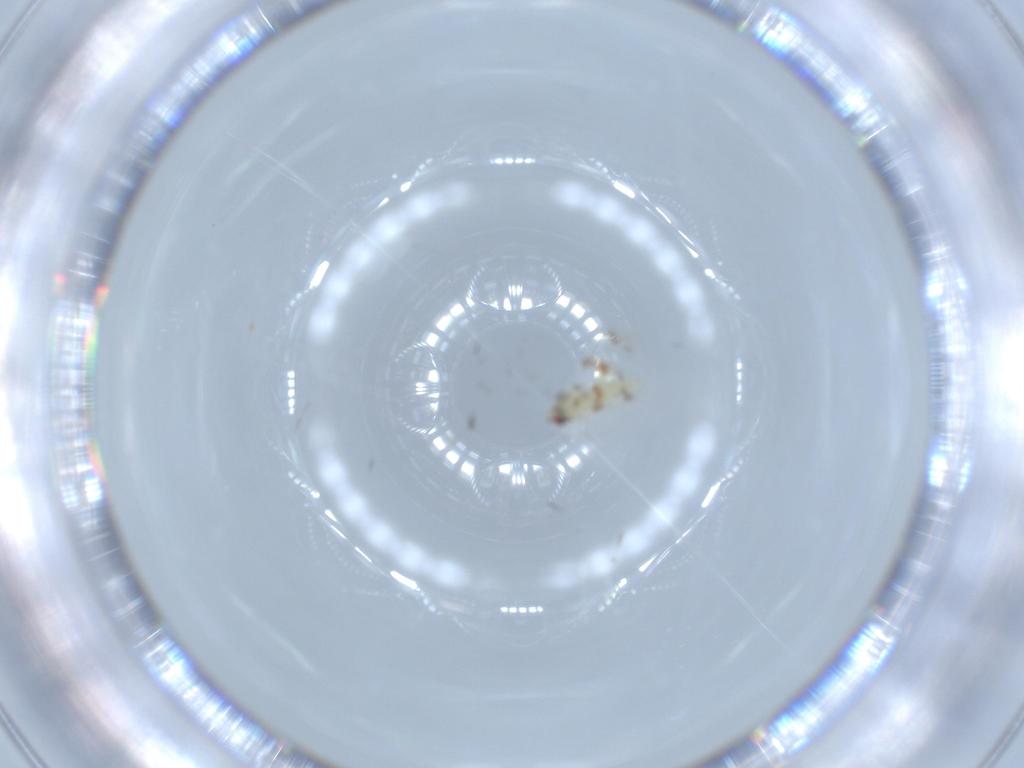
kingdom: Animalia
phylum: Arthropoda
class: Insecta
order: Hemiptera
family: Aleyrodidae
